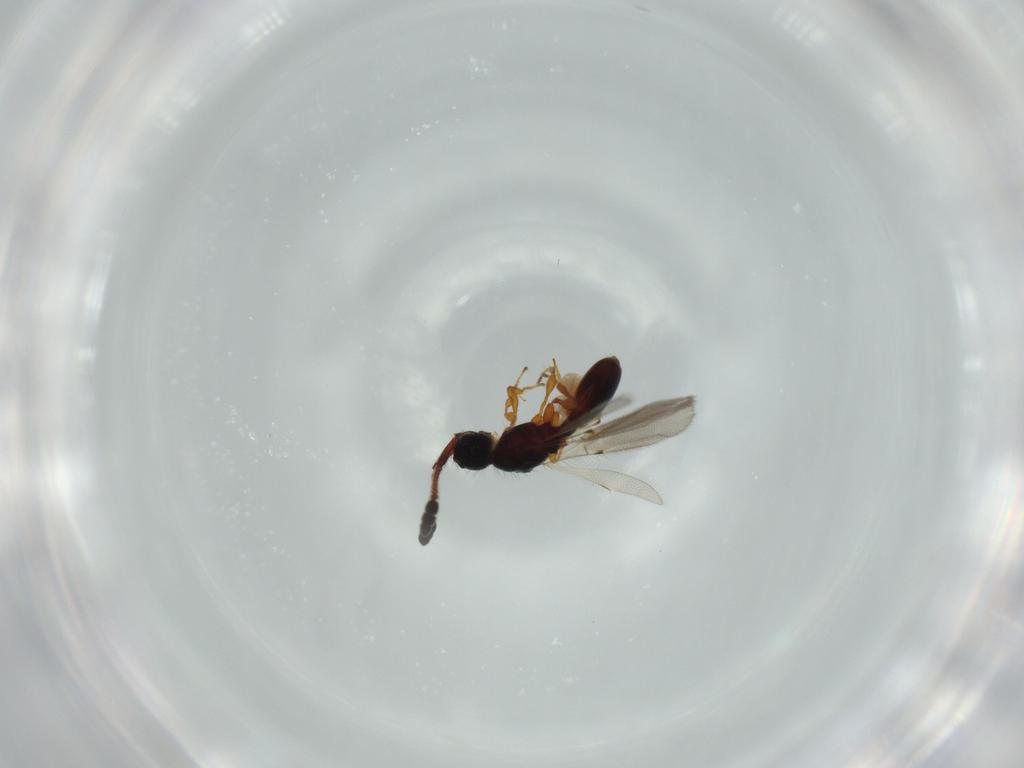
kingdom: Animalia
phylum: Arthropoda
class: Insecta
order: Hymenoptera
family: Diapriidae
